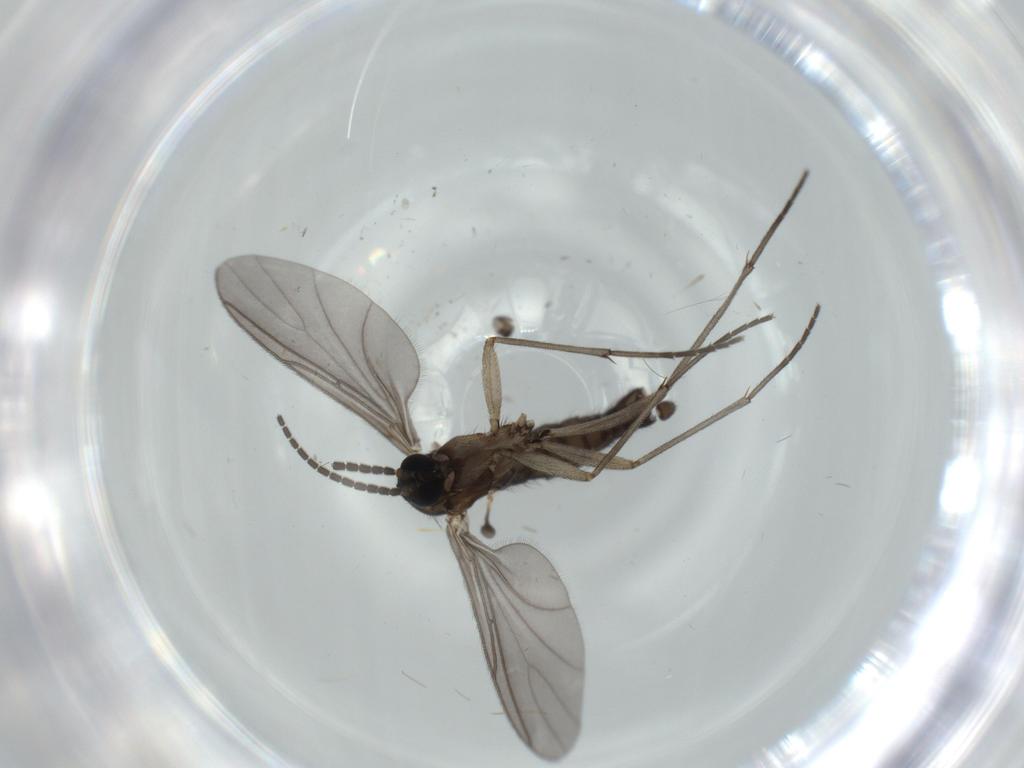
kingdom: Animalia
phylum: Arthropoda
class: Insecta
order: Diptera
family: Sciaridae
